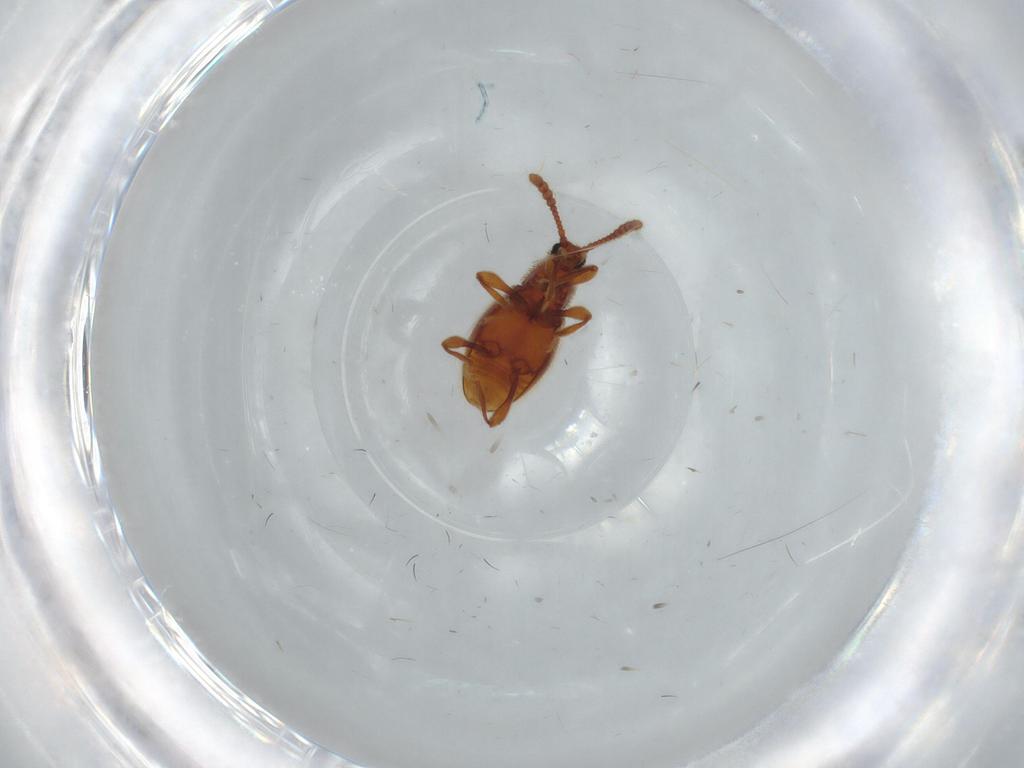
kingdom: Animalia
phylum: Arthropoda
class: Insecta
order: Coleoptera
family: Staphylinidae
